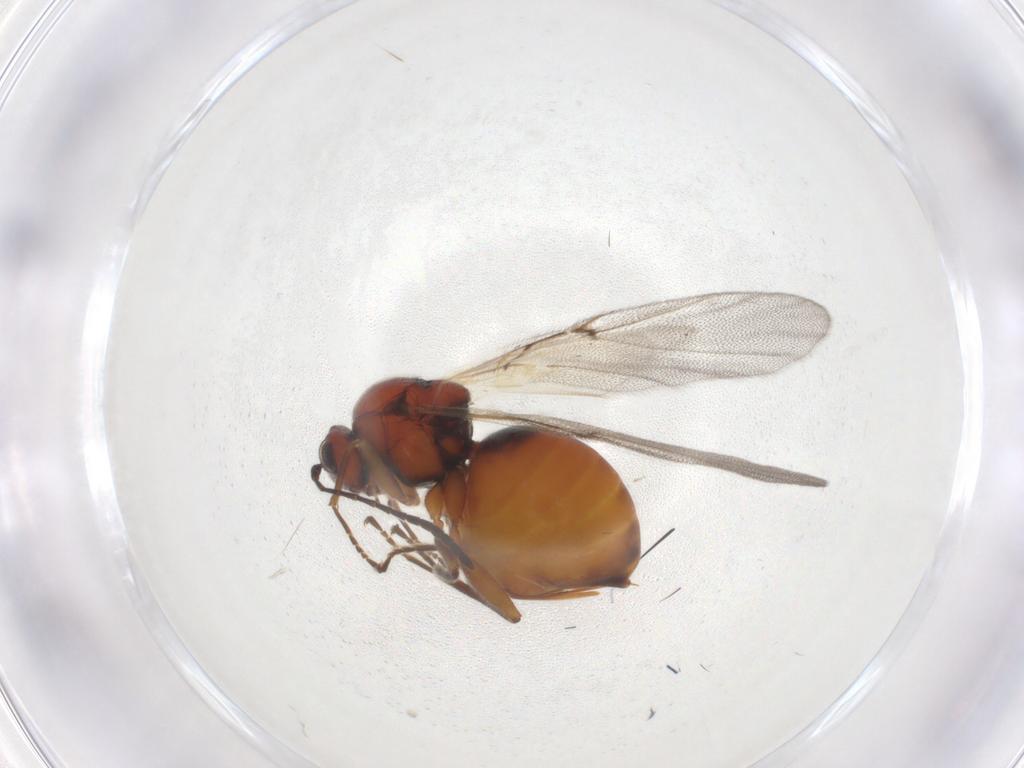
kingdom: Animalia
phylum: Arthropoda
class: Insecta
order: Hymenoptera
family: Cynipidae
